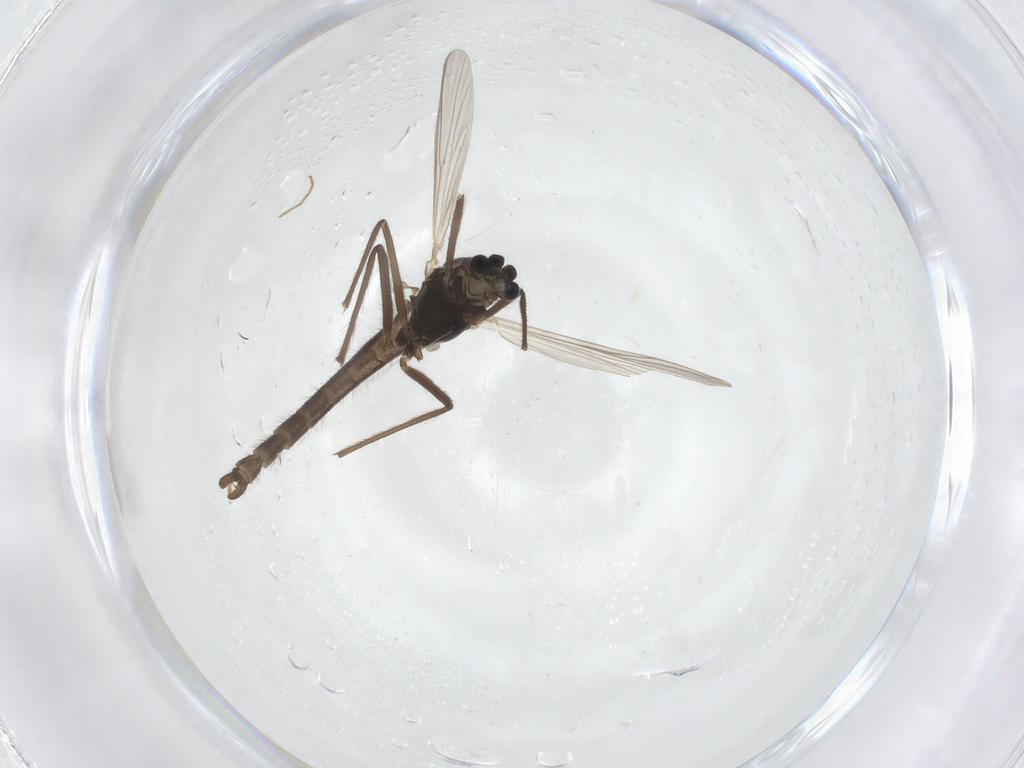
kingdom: Animalia
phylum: Arthropoda
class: Insecta
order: Diptera
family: Chironomidae
